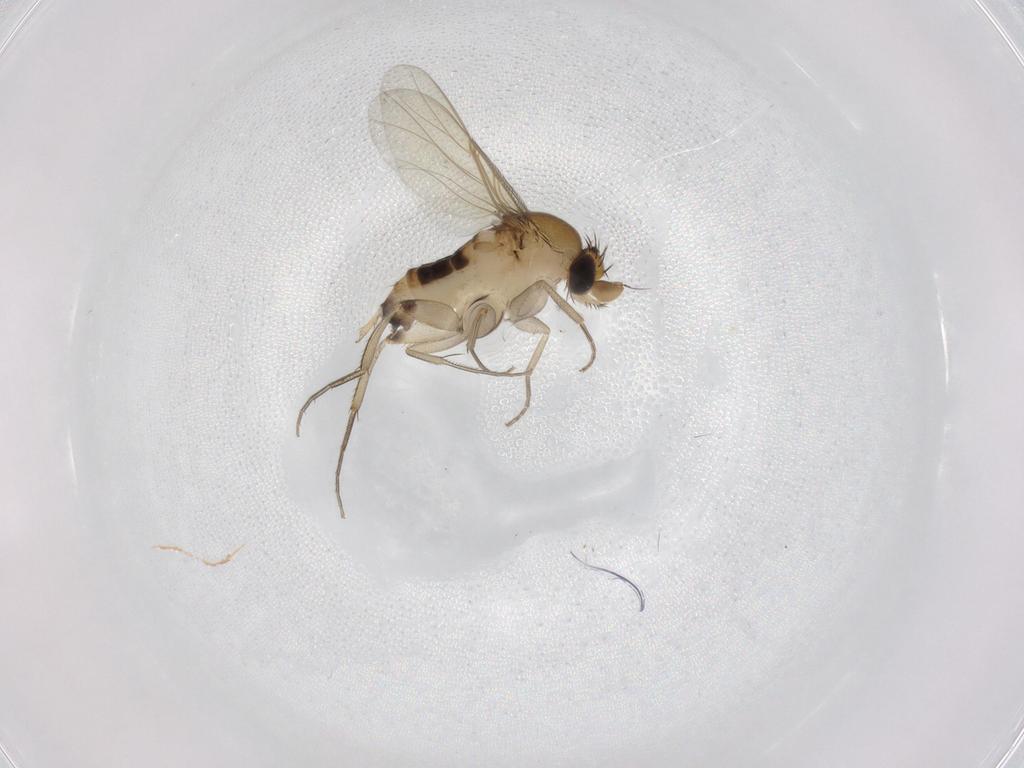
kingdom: Animalia
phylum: Arthropoda
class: Insecta
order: Diptera
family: Phoridae
